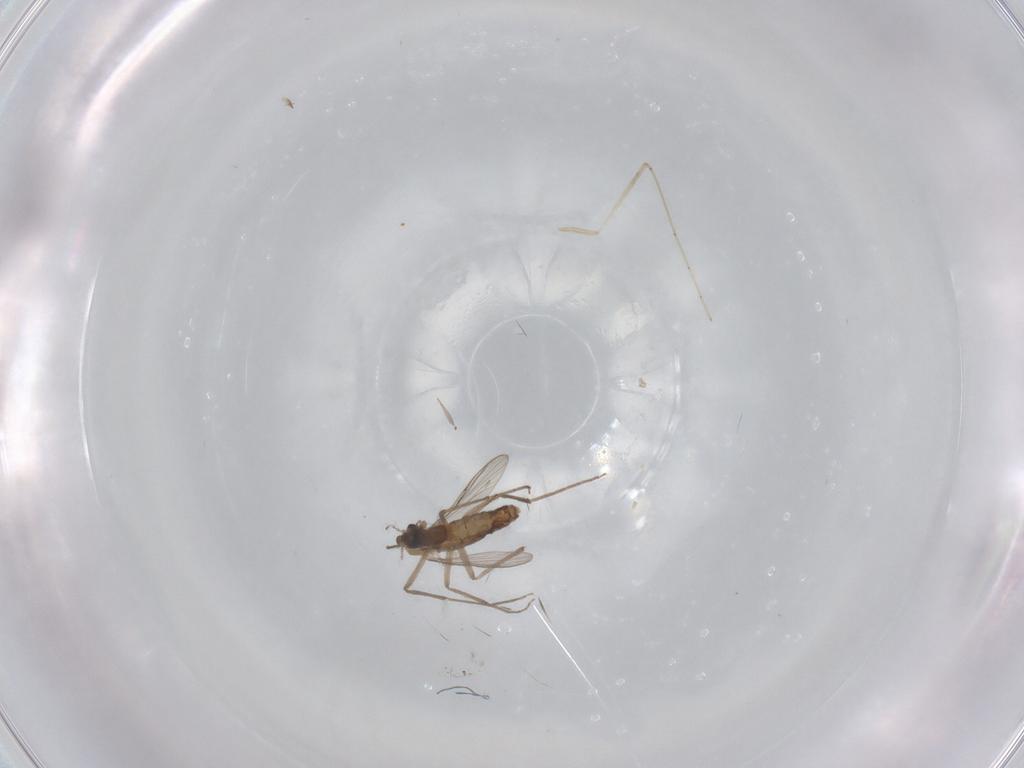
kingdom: Animalia
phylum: Arthropoda
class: Insecta
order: Diptera
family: Chironomidae
